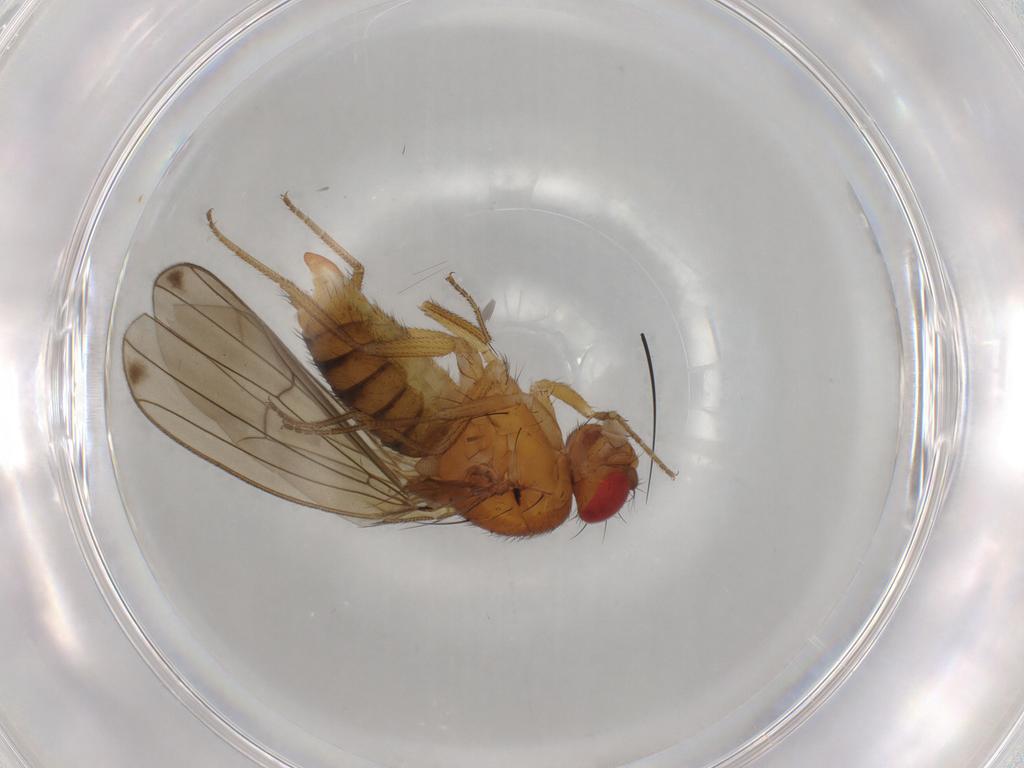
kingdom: Animalia
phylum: Arthropoda
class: Insecta
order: Diptera
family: Drosophilidae
